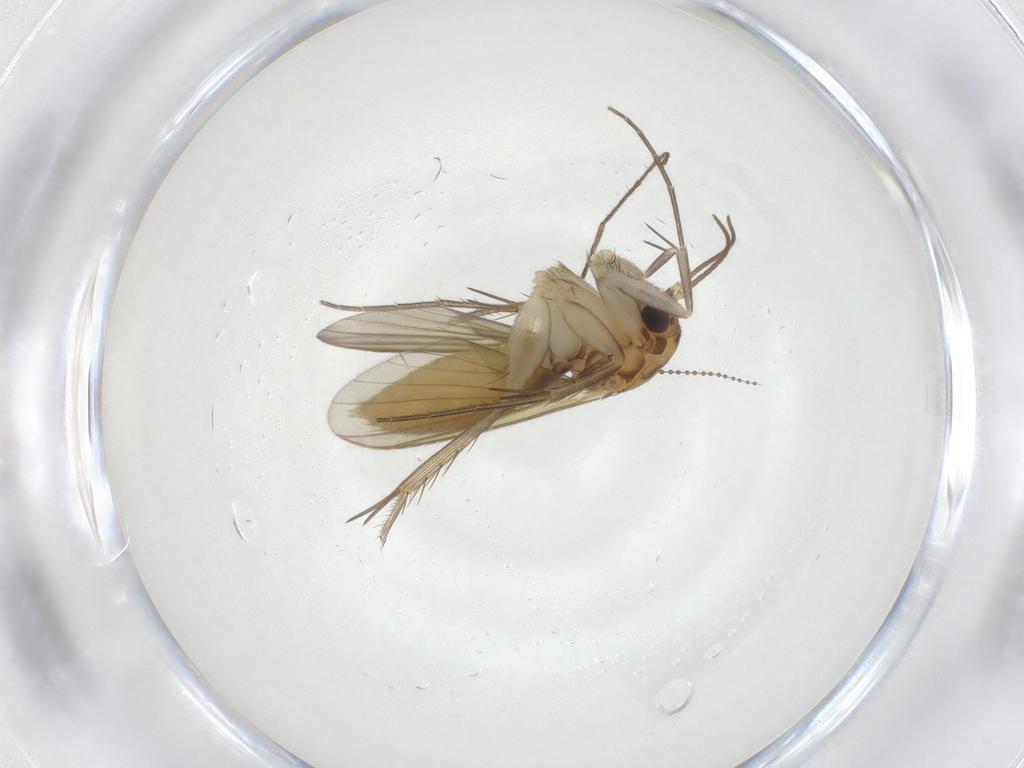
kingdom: Animalia
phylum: Arthropoda
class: Insecta
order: Diptera
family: Mycetophilidae
